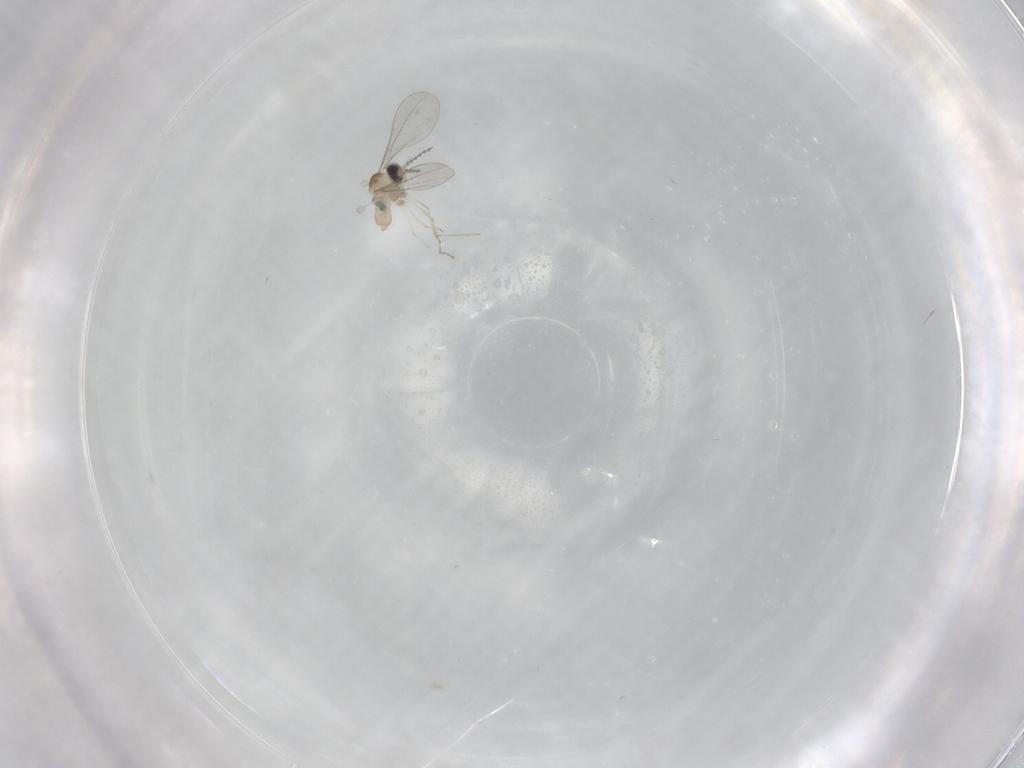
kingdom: Animalia
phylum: Arthropoda
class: Insecta
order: Diptera
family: Cecidomyiidae
